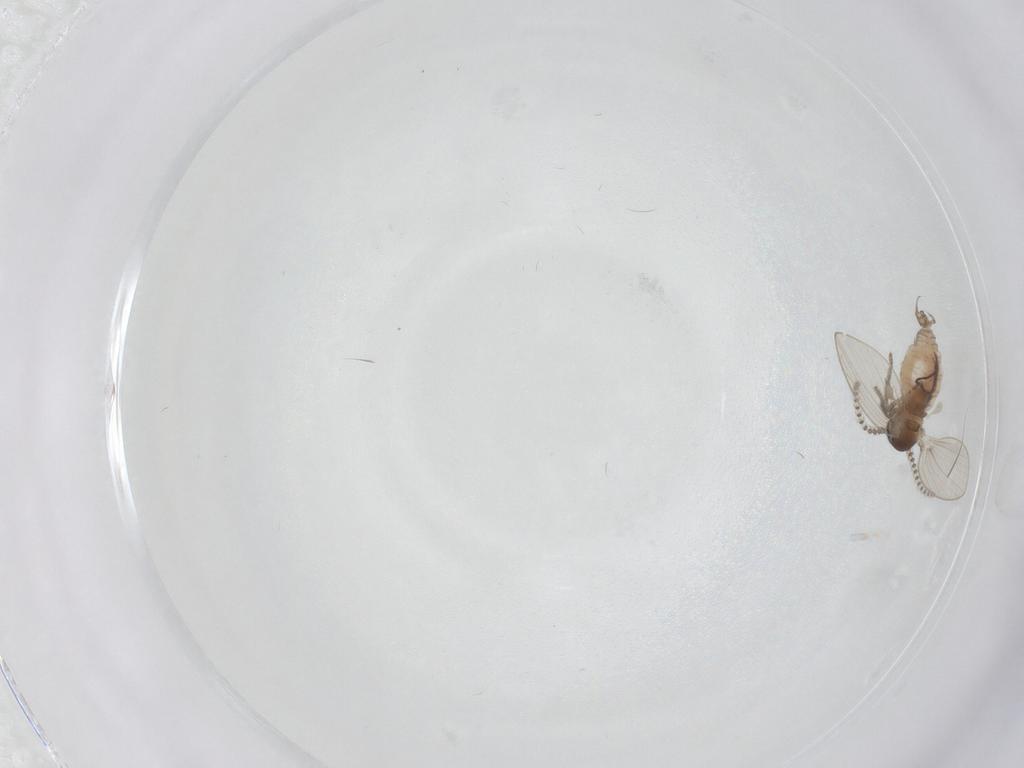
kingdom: Animalia
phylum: Arthropoda
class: Insecta
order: Diptera
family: Psychodidae
